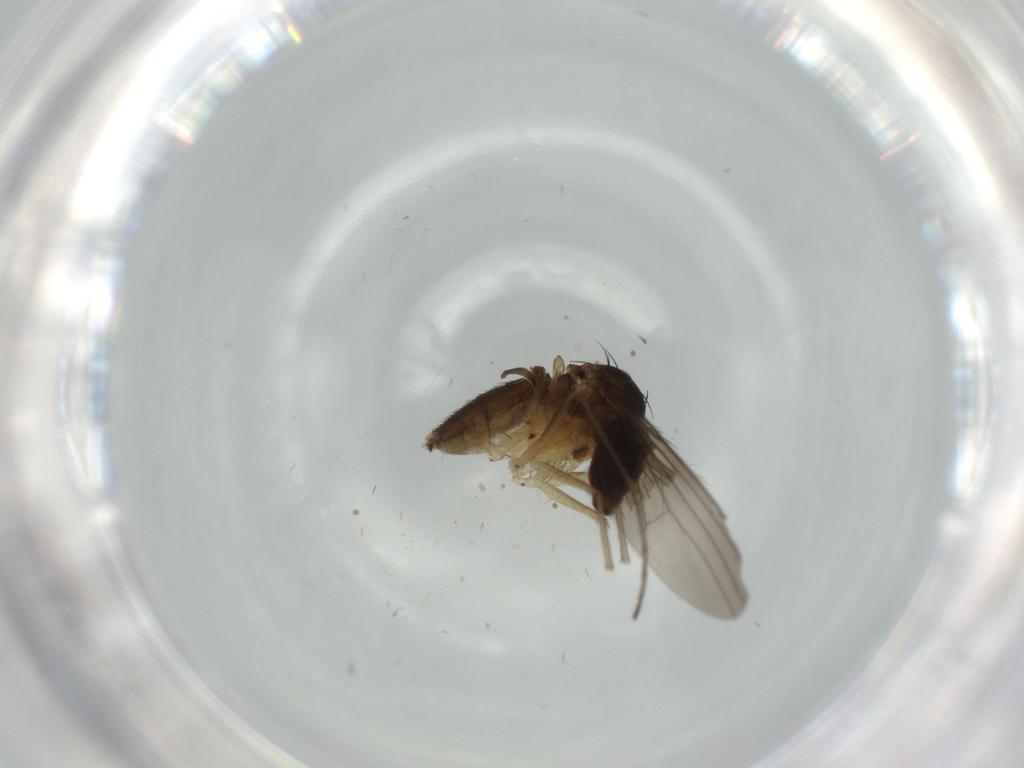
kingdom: Animalia
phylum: Arthropoda
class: Insecta
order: Diptera
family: Dolichopodidae
